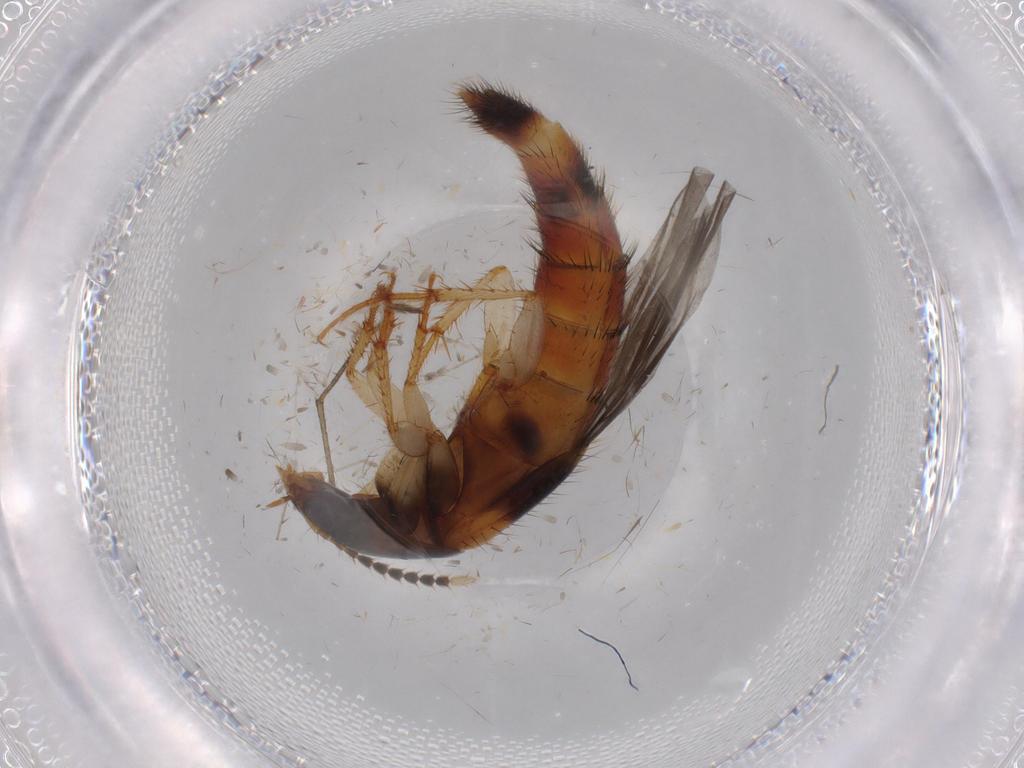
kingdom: Animalia
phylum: Arthropoda
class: Insecta
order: Coleoptera
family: Staphylinidae
